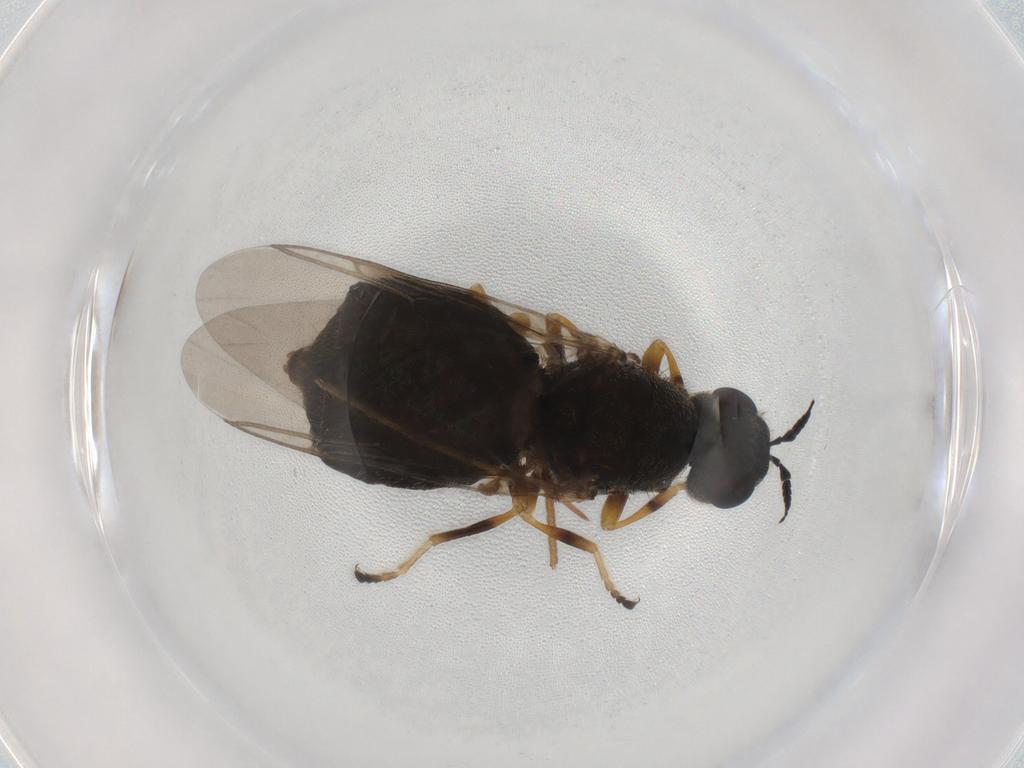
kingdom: Animalia
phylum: Arthropoda
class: Insecta
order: Diptera
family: Stratiomyidae
